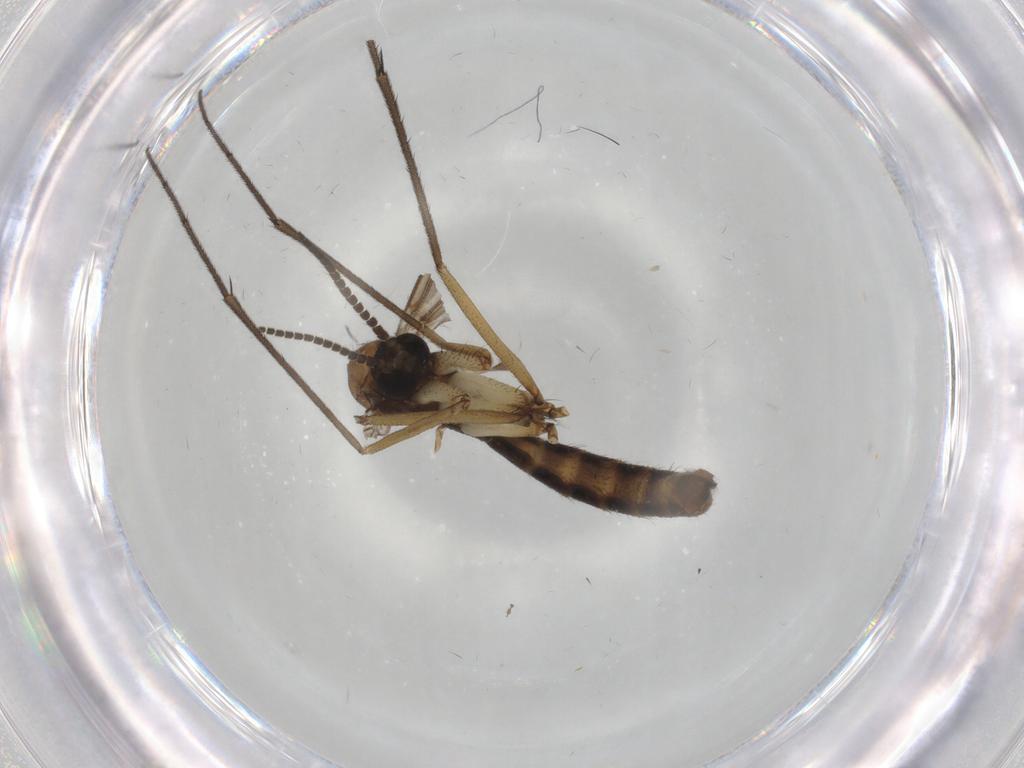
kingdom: Animalia
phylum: Arthropoda
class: Insecta
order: Diptera
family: Ditomyiidae
